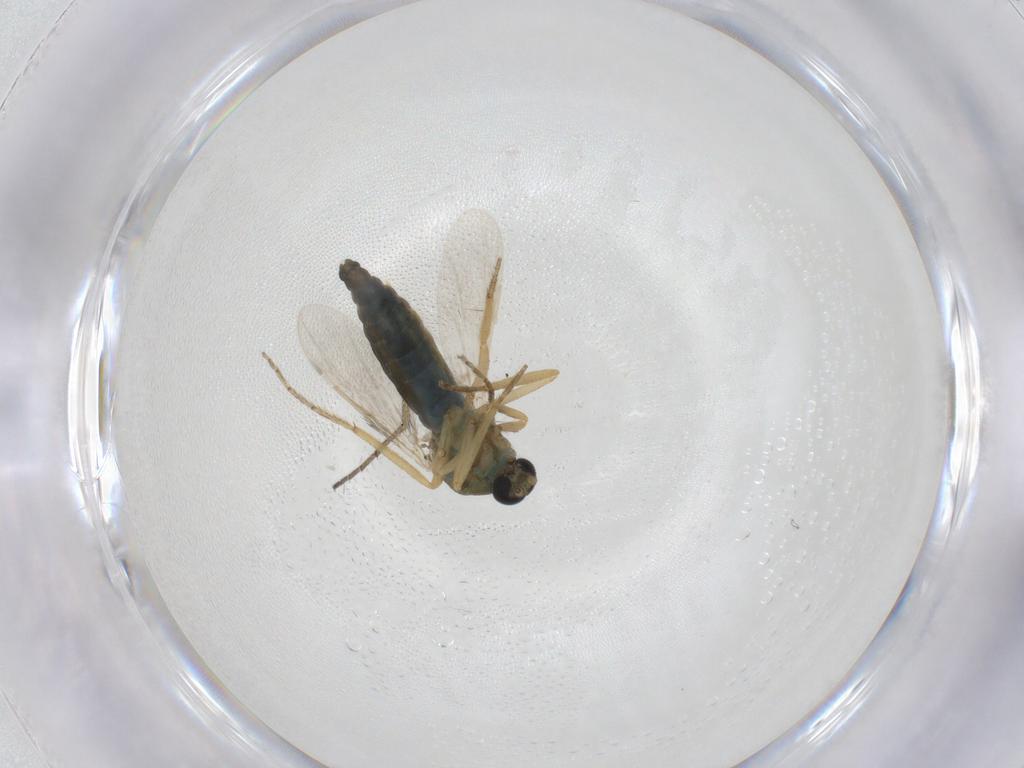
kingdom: Animalia
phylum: Arthropoda
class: Insecta
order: Diptera
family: Ceratopogonidae
